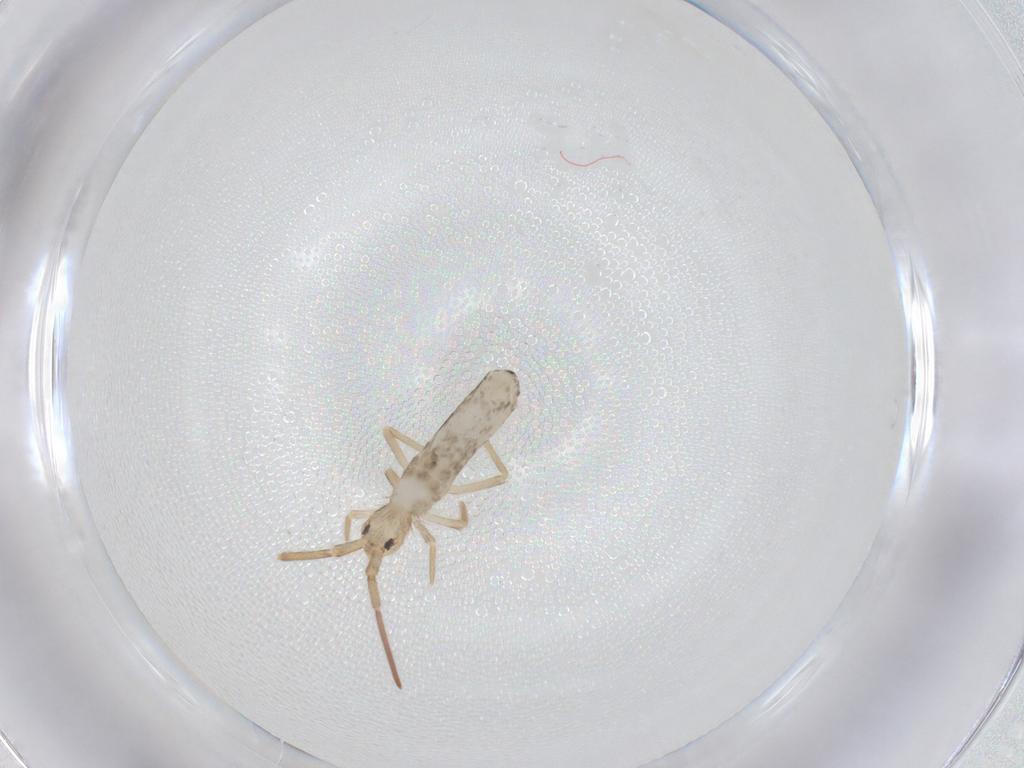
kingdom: Animalia
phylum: Arthropoda
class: Collembola
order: Entomobryomorpha
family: Entomobryidae
